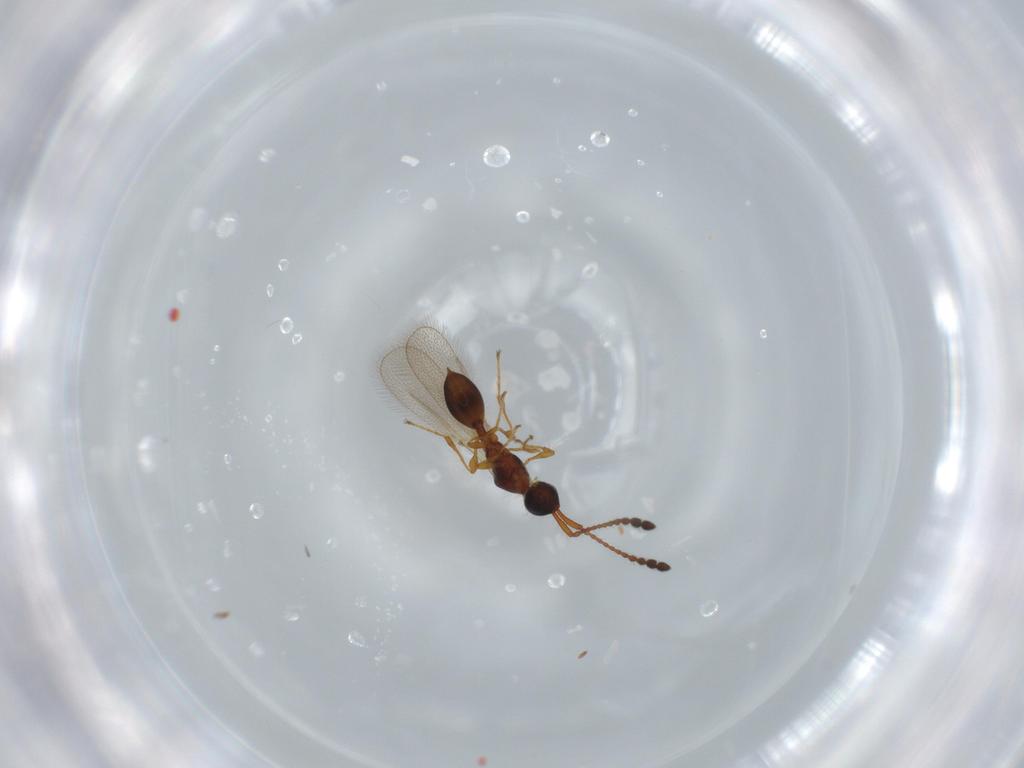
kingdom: Animalia
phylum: Arthropoda
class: Insecta
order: Hymenoptera
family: Diapriidae
